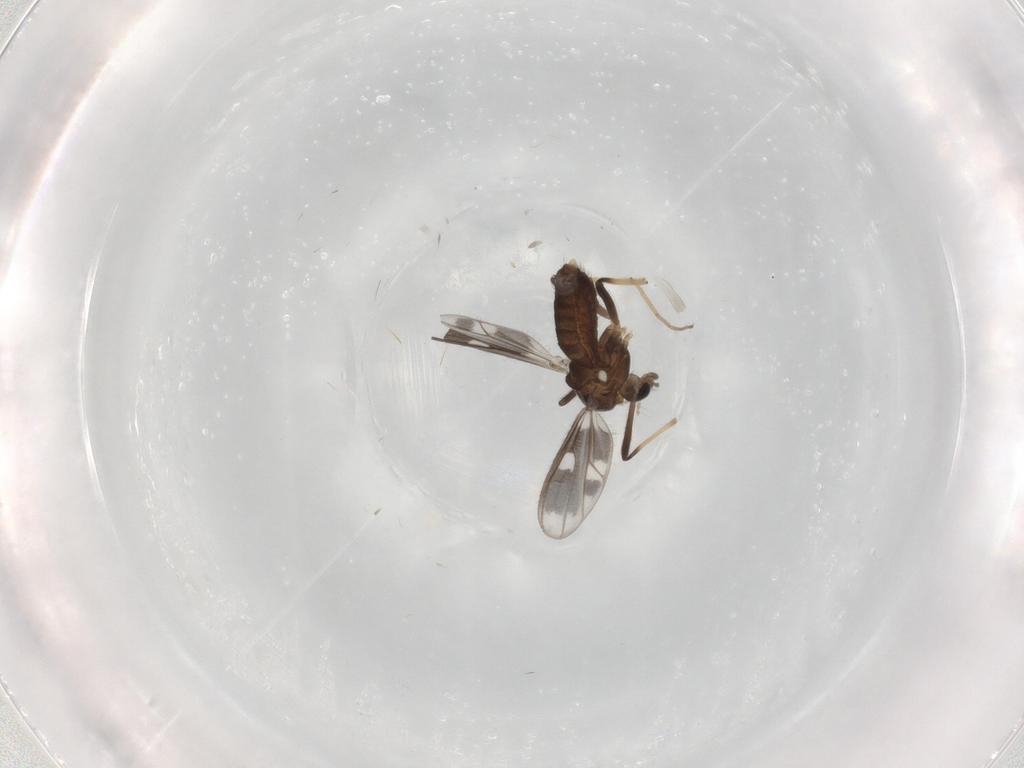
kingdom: Animalia
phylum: Arthropoda
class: Insecta
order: Diptera
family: Chironomidae
